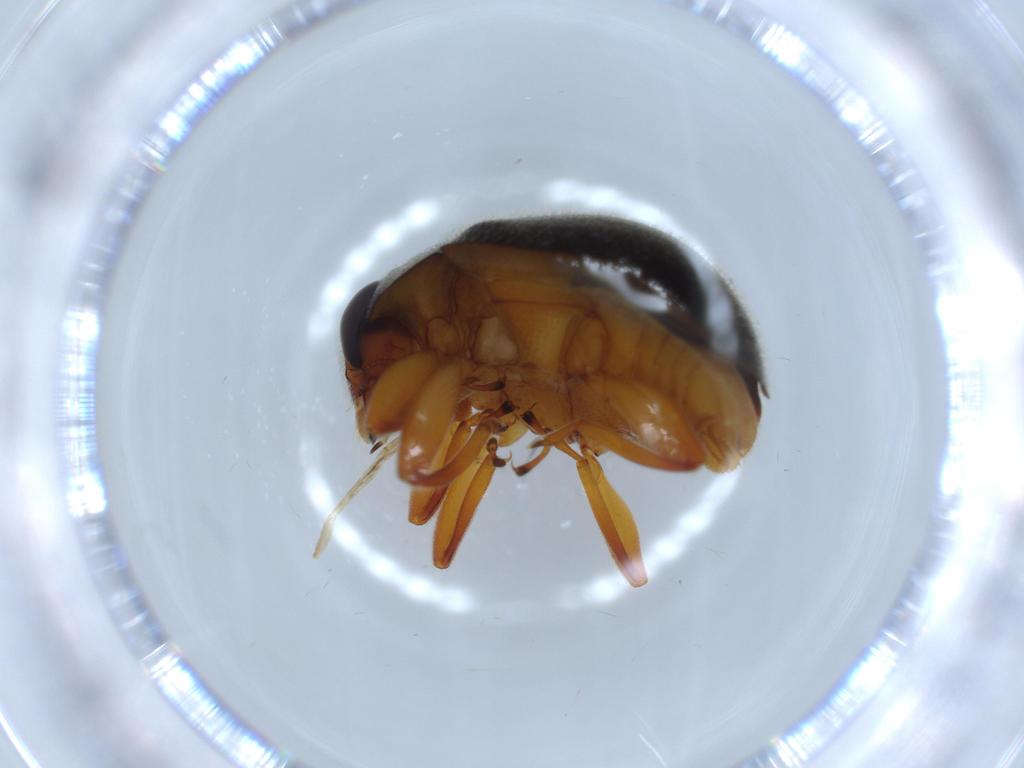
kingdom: Animalia
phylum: Arthropoda
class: Insecta
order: Coleoptera
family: Coccinellidae
